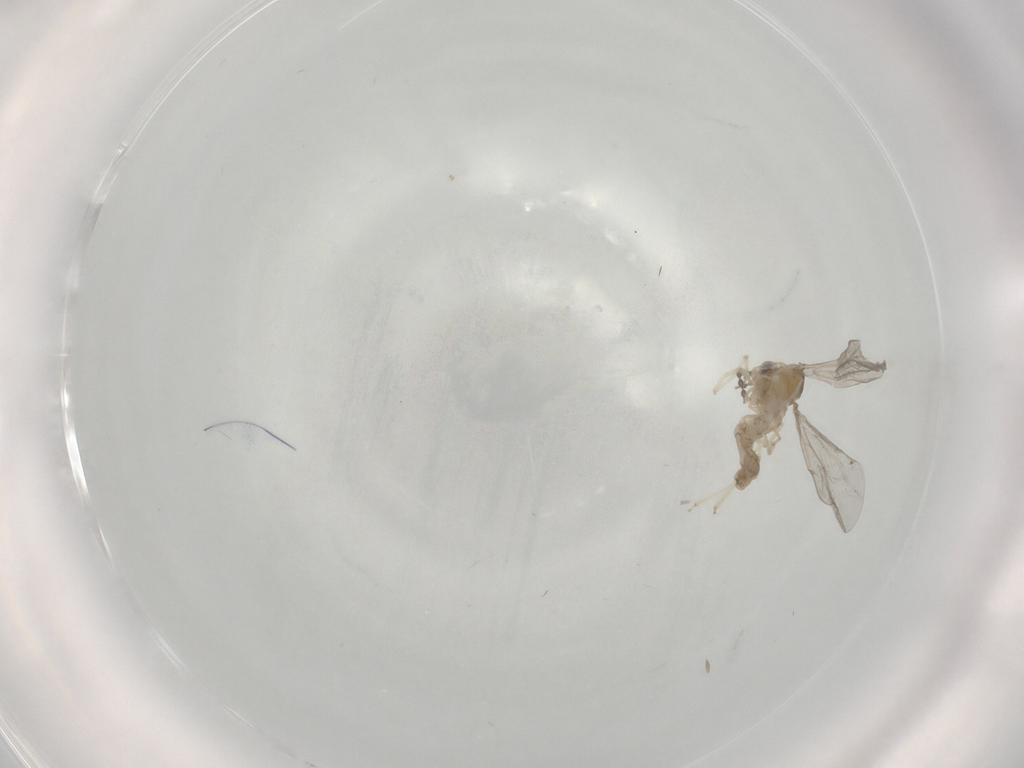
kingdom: Animalia
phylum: Arthropoda
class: Insecta
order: Diptera
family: Chironomidae
